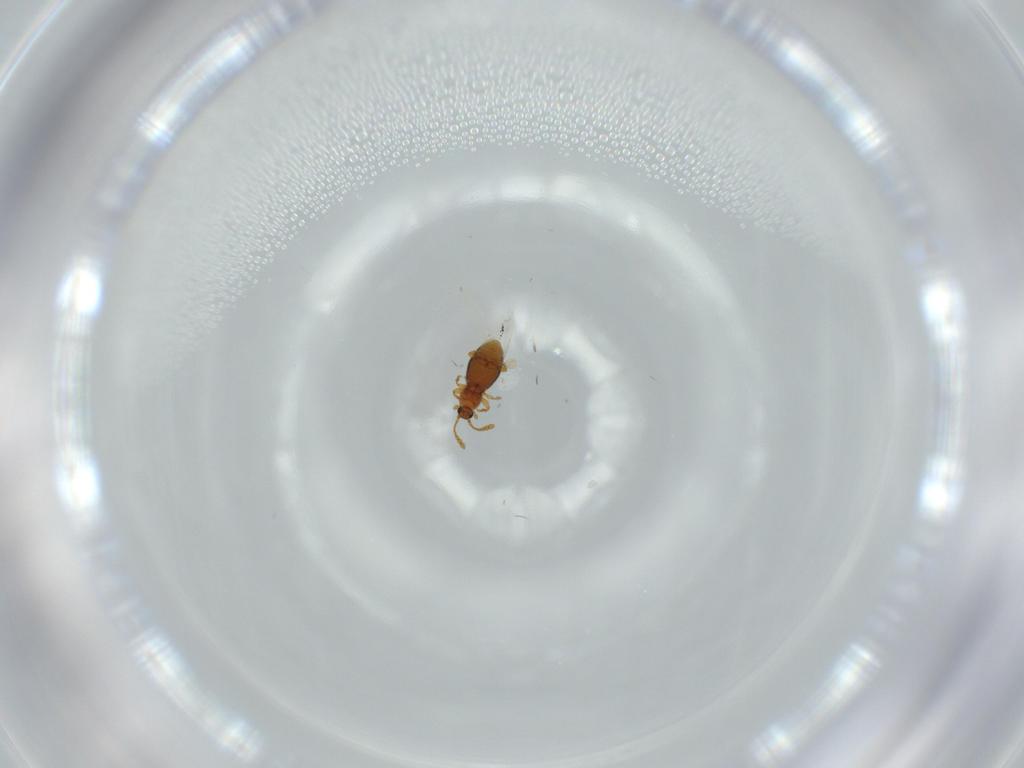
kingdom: Animalia
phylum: Arthropoda
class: Insecta
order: Coleoptera
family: Staphylinidae
